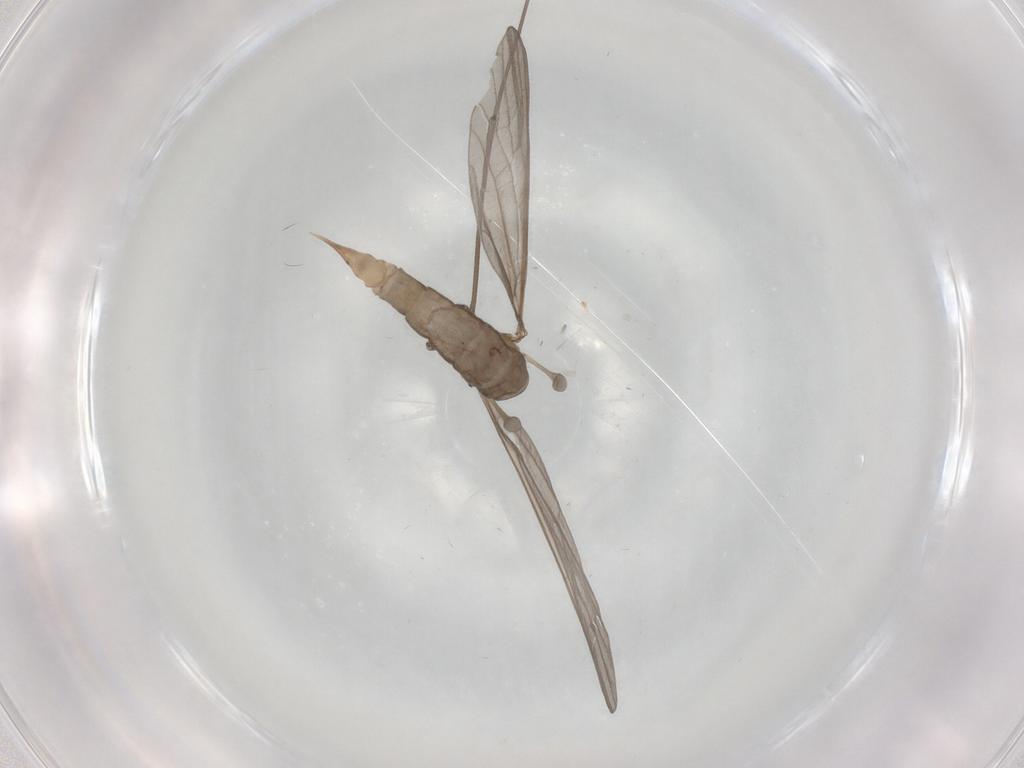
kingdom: Animalia
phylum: Arthropoda
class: Insecta
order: Diptera
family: Limoniidae
